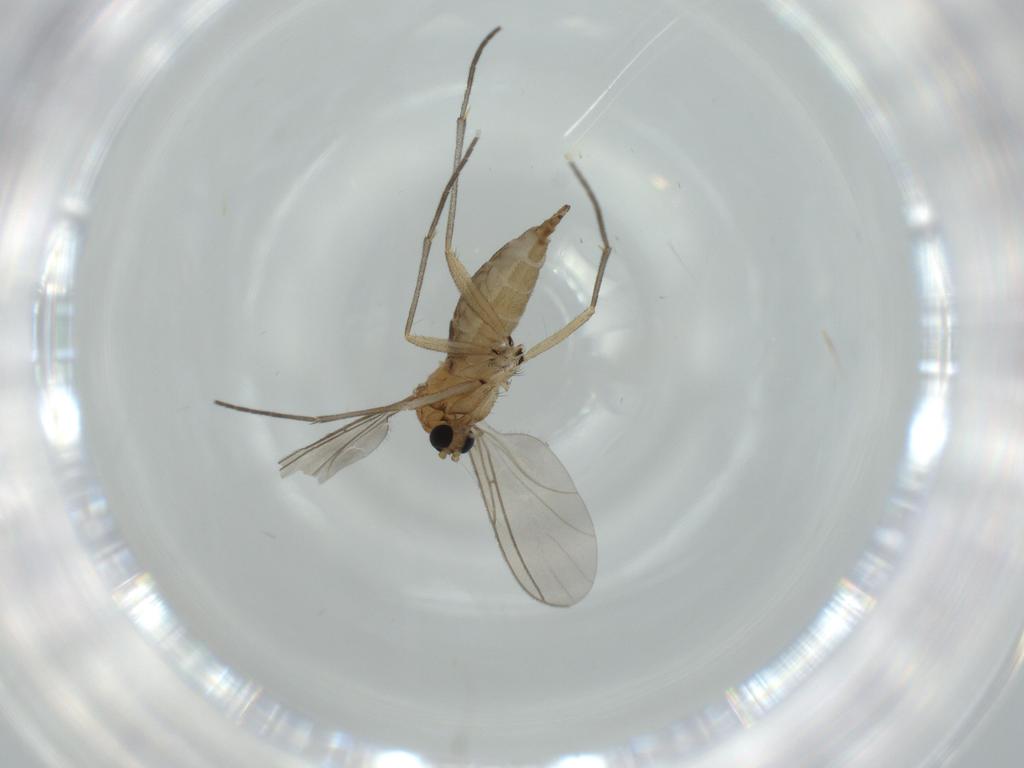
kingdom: Animalia
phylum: Arthropoda
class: Insecta
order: Diptera
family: Sciaridae
